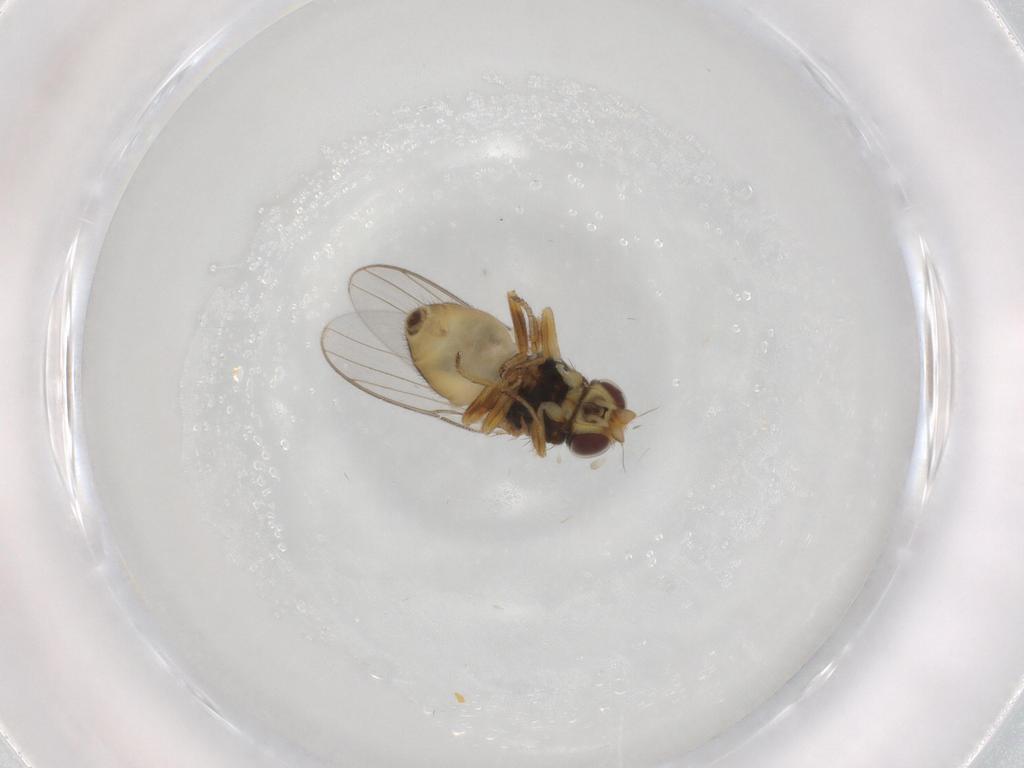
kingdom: Animalia
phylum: Arthropoda
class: Insecta
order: Diptera
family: Chloropidae
